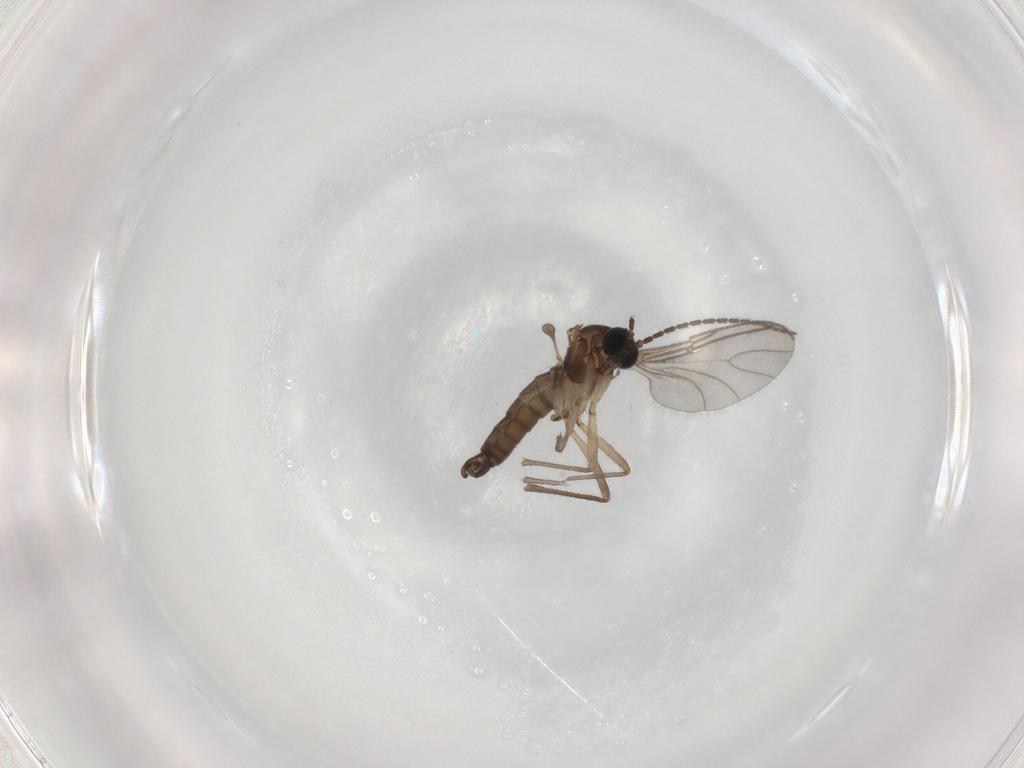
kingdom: Animalia
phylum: Arthropoda
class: Insecta
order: Diptera
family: Sciaridae
